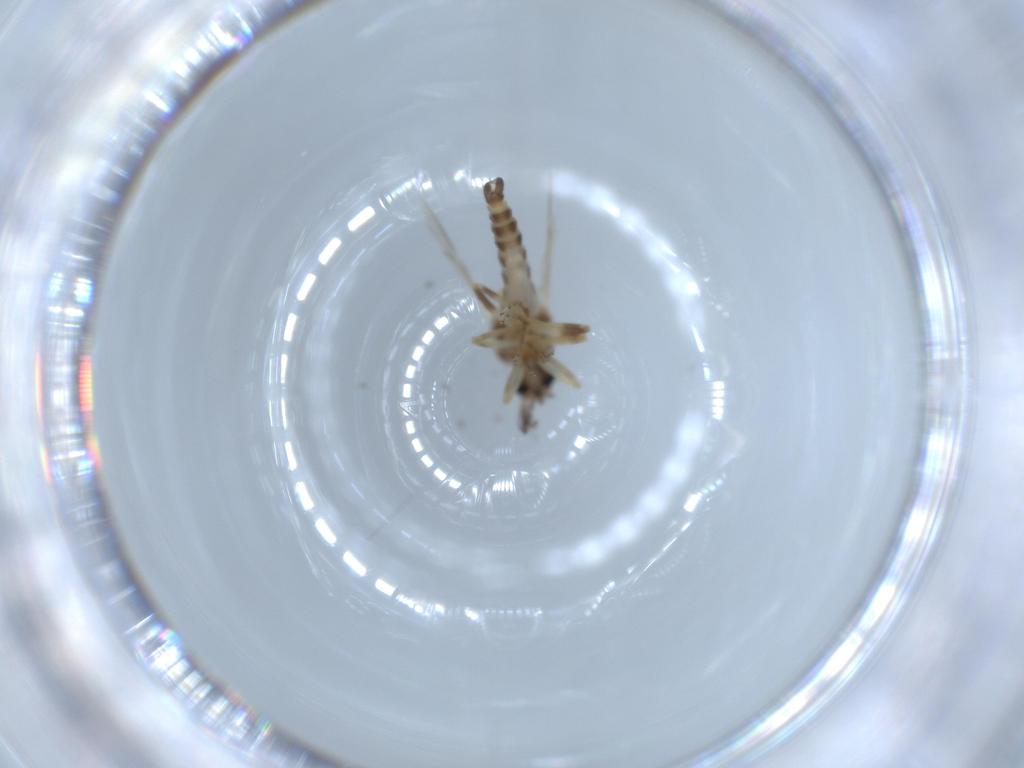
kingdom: Animalia
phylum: Arthropoda
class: Insecta
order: Diptera
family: Ceratopogonidae
